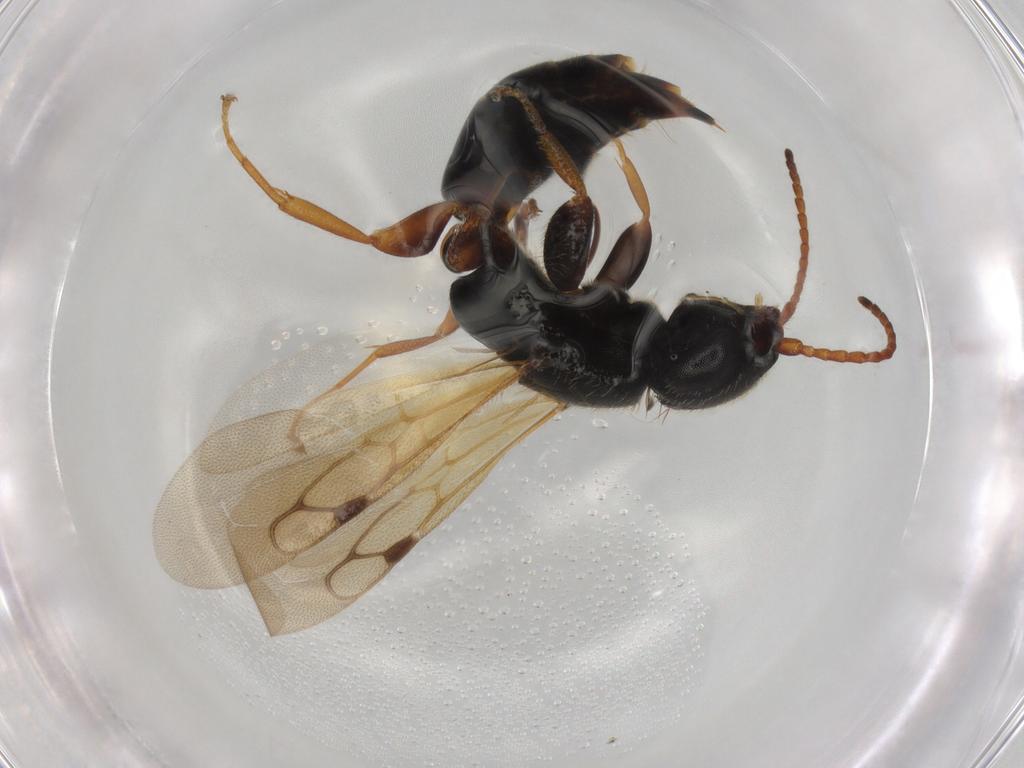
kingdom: Animalia
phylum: Arthropoda
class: Insecta
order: Hymenoptera
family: Bethylidae
